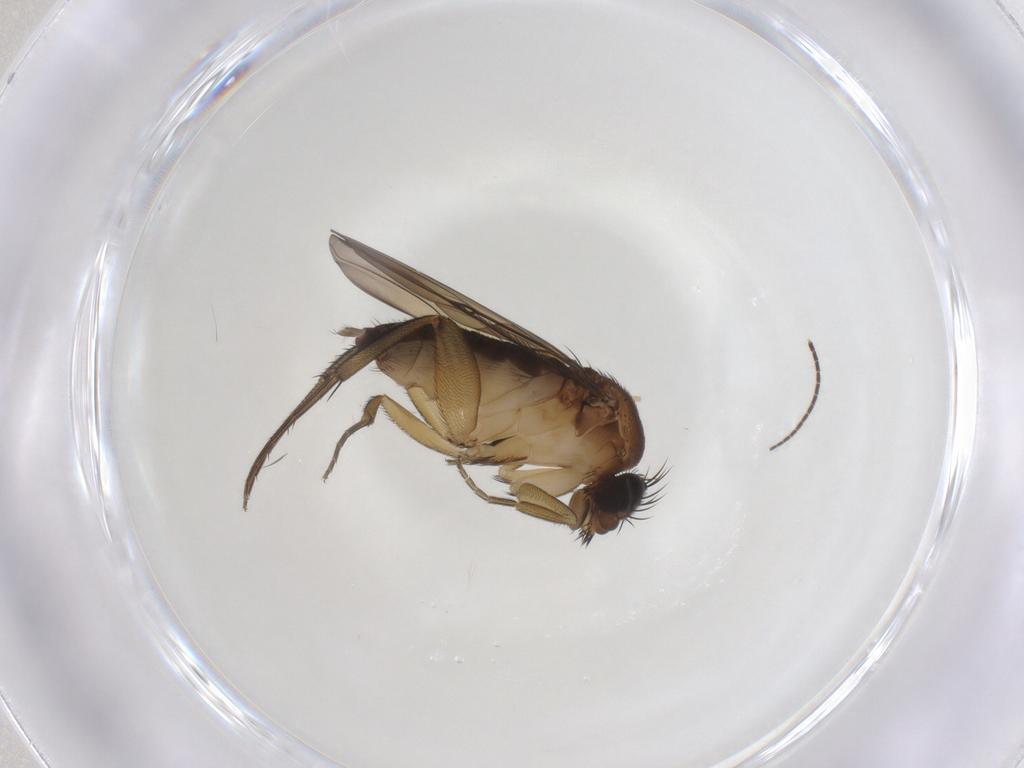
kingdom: Animalia
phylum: Arthropoda
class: Insecta
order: Diptera
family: Phoridae
